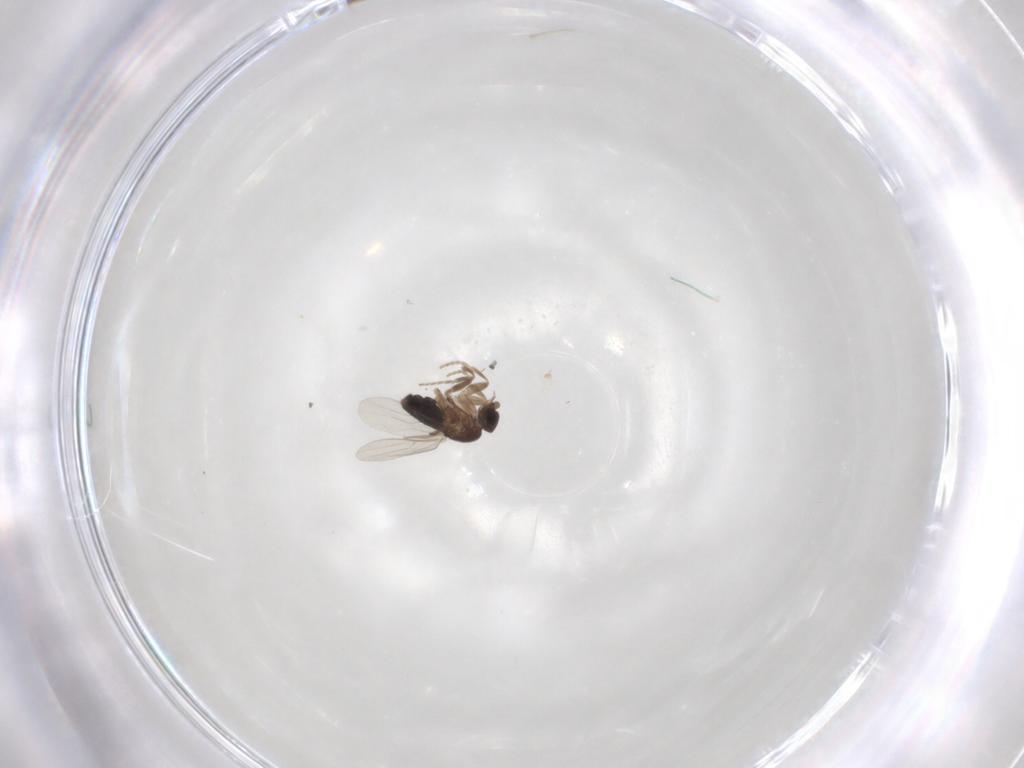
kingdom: Animalia
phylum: Arthropoda
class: Insecta
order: Diptera
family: Phoridae
